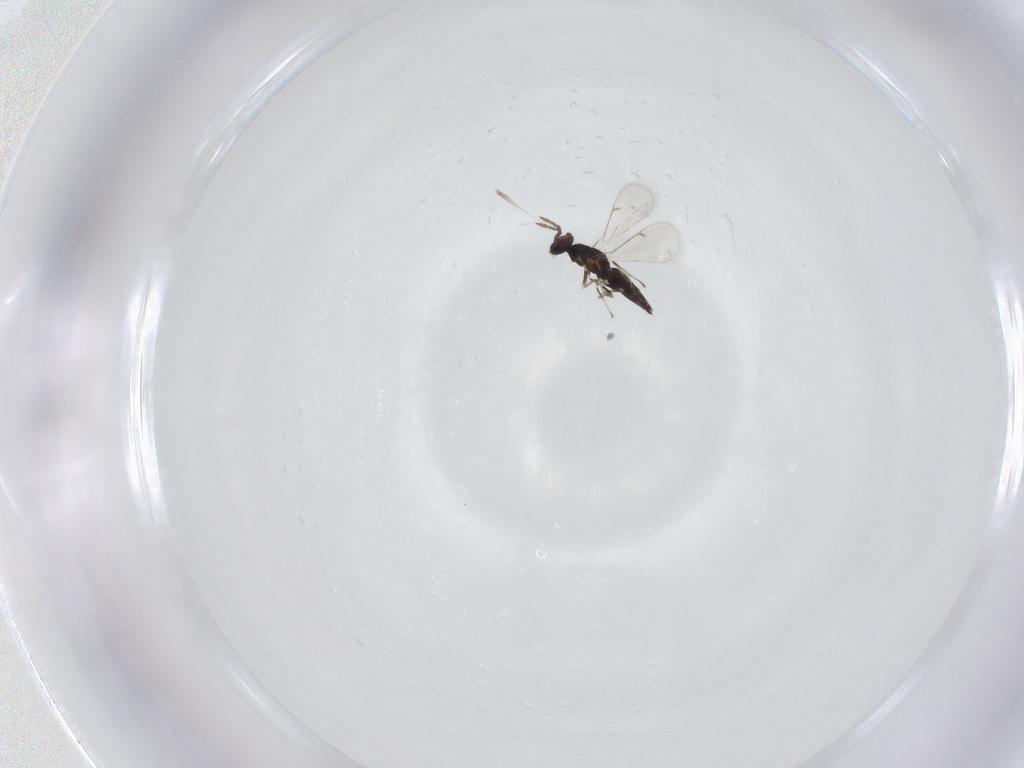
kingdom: Animalia
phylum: Arthropoda
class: Insecta
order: Hymenoptera
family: Eulophidae
